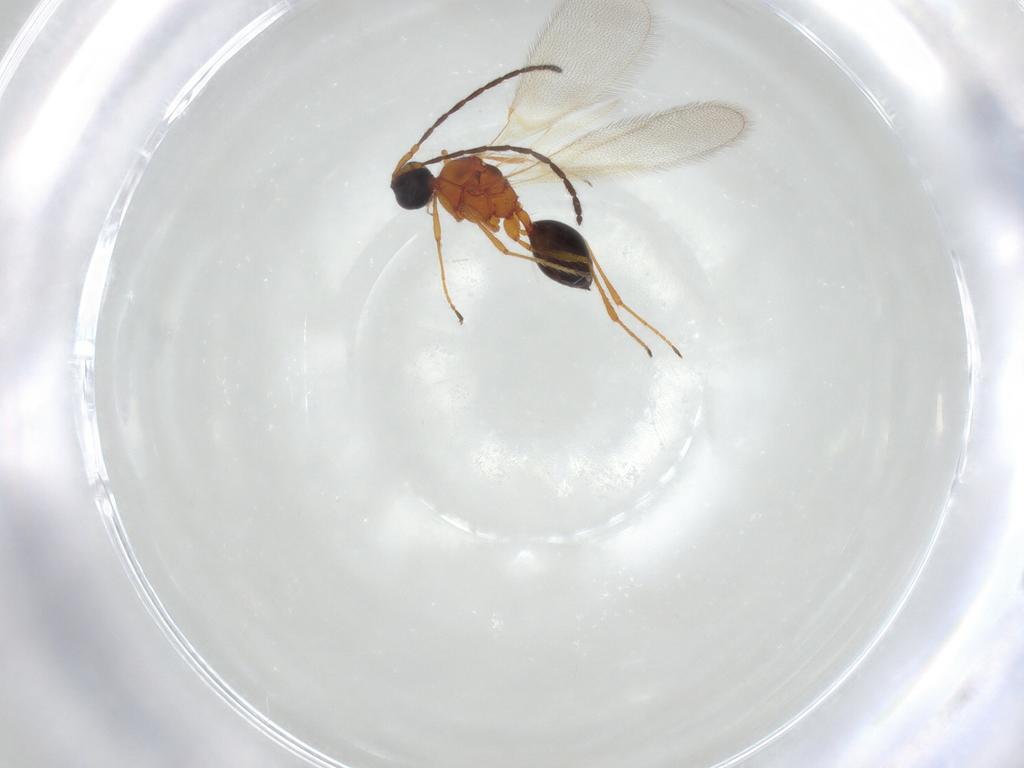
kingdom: Animalia
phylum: Arthropoda
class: Insecta
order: Hymenoptera
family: Diapriidae
